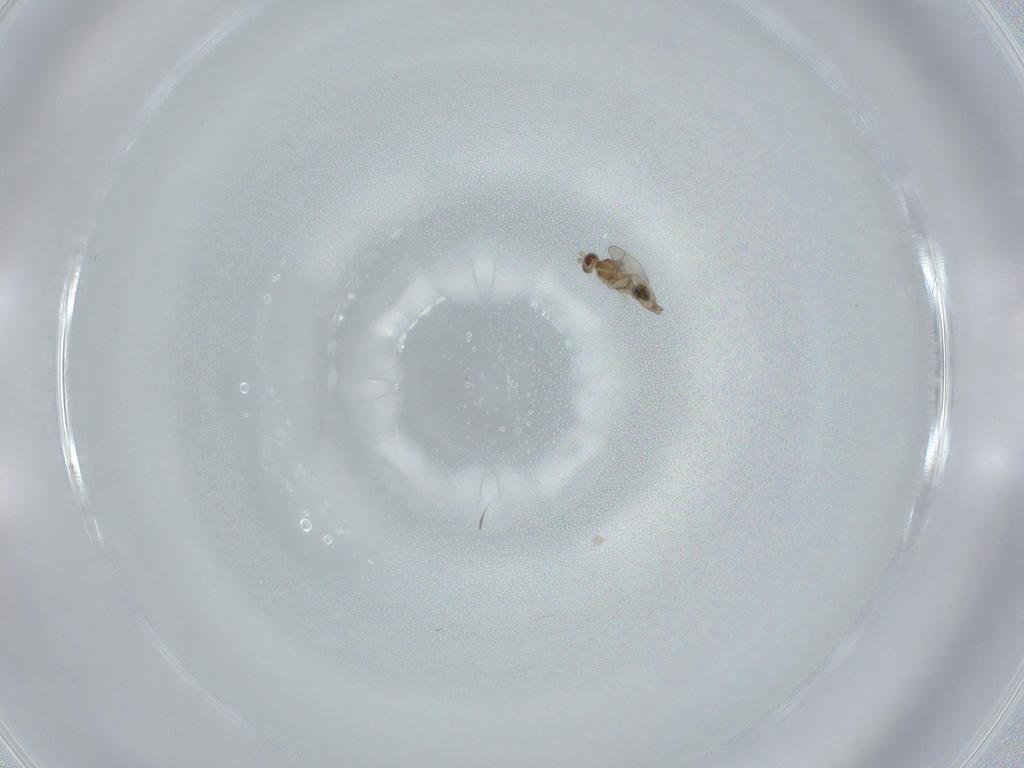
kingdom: Animalia
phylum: Arthropoda
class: Insecta
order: Diptera
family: Cecidomyiidae
